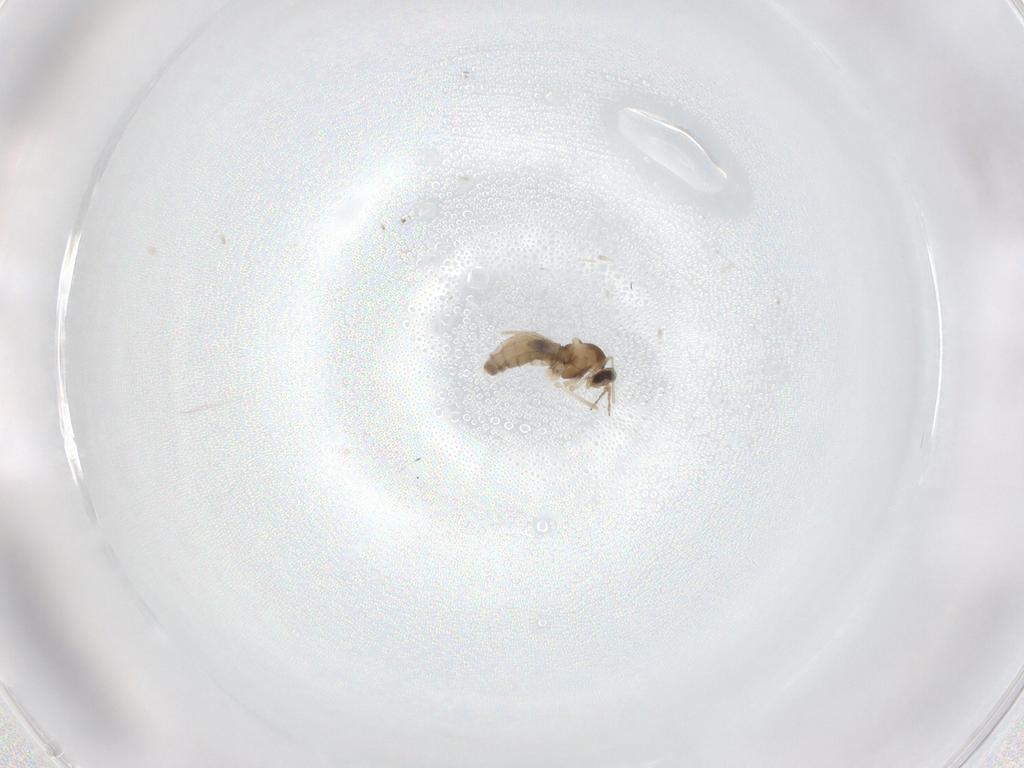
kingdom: Animalia
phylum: Arthropoda
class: Insecta
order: Diptera
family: Cecidomyiidae
